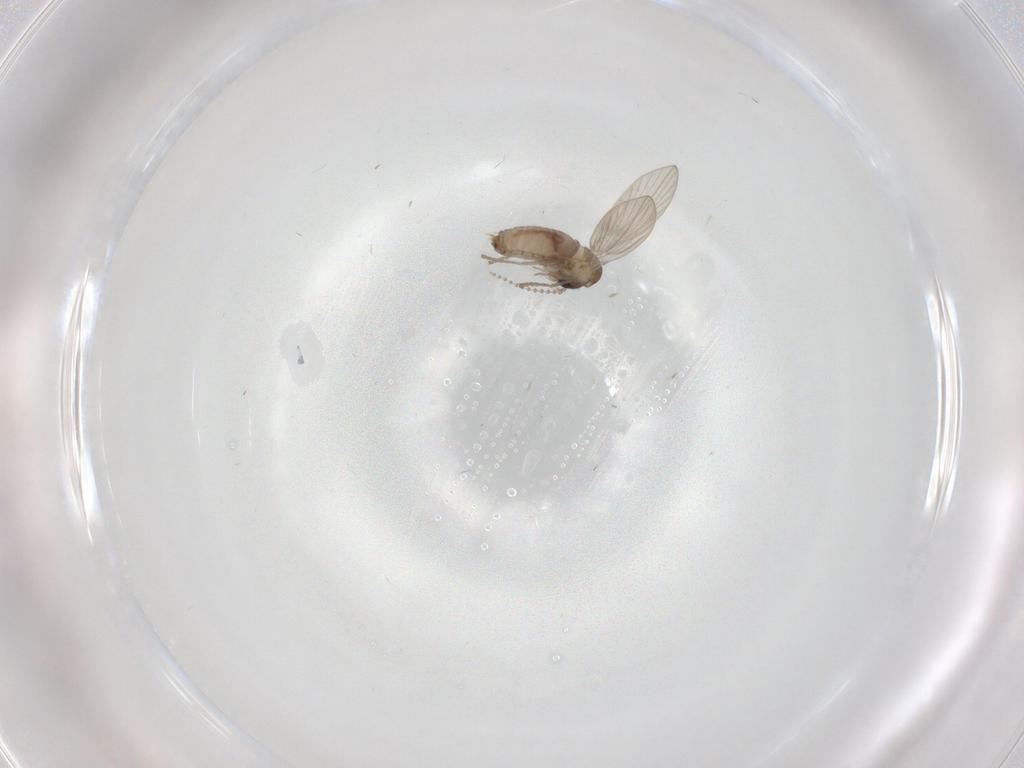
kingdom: Animalia
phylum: Arthropoda
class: Insecta
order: Diptera
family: Psychodidae
